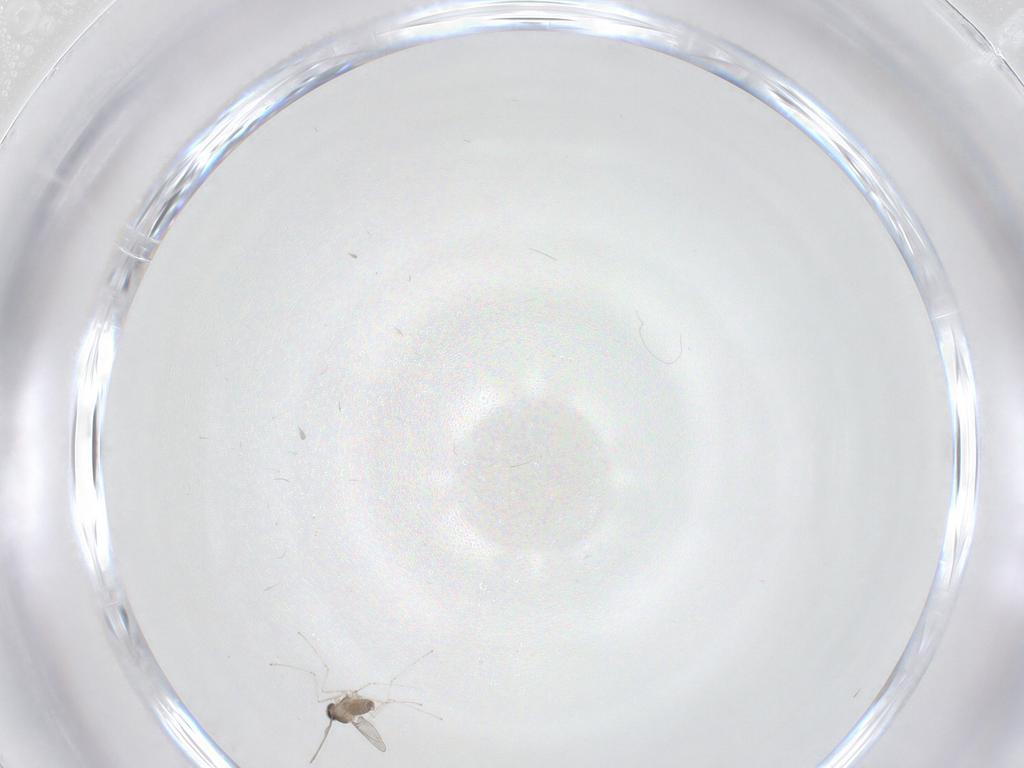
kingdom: Animalia
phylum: Arthropoda
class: Insecta
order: Diptera
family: Cecidomyiidae
